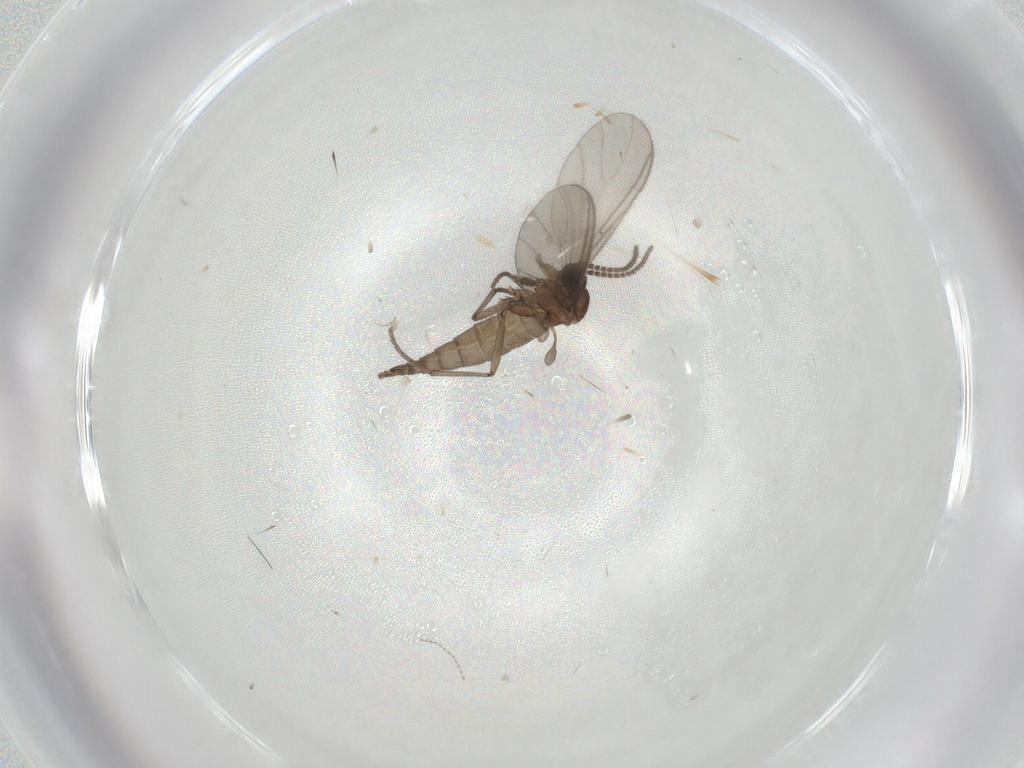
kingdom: Animalia
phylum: Arthropoda
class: Insecta
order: Diptera
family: Sciaridae
